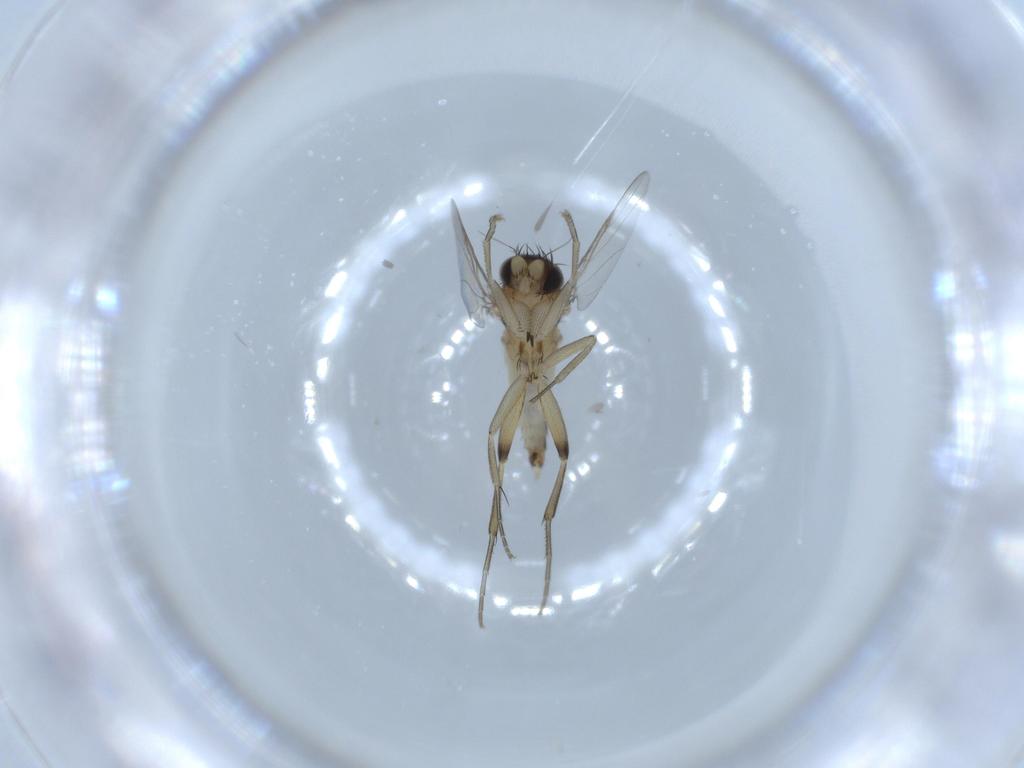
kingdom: Animalia
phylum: Arthropoda
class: Insecta
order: Diptera
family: Phoridae
